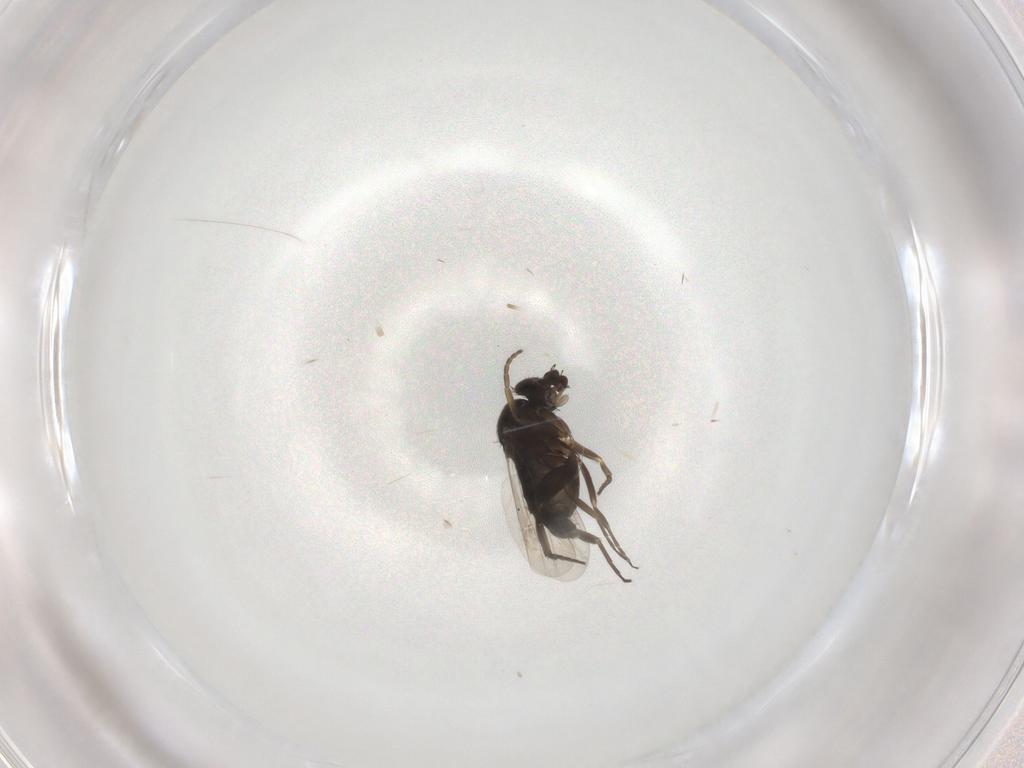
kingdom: Animalia
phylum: Arthropoda
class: Insecta
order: Diptera
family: Phoridae
